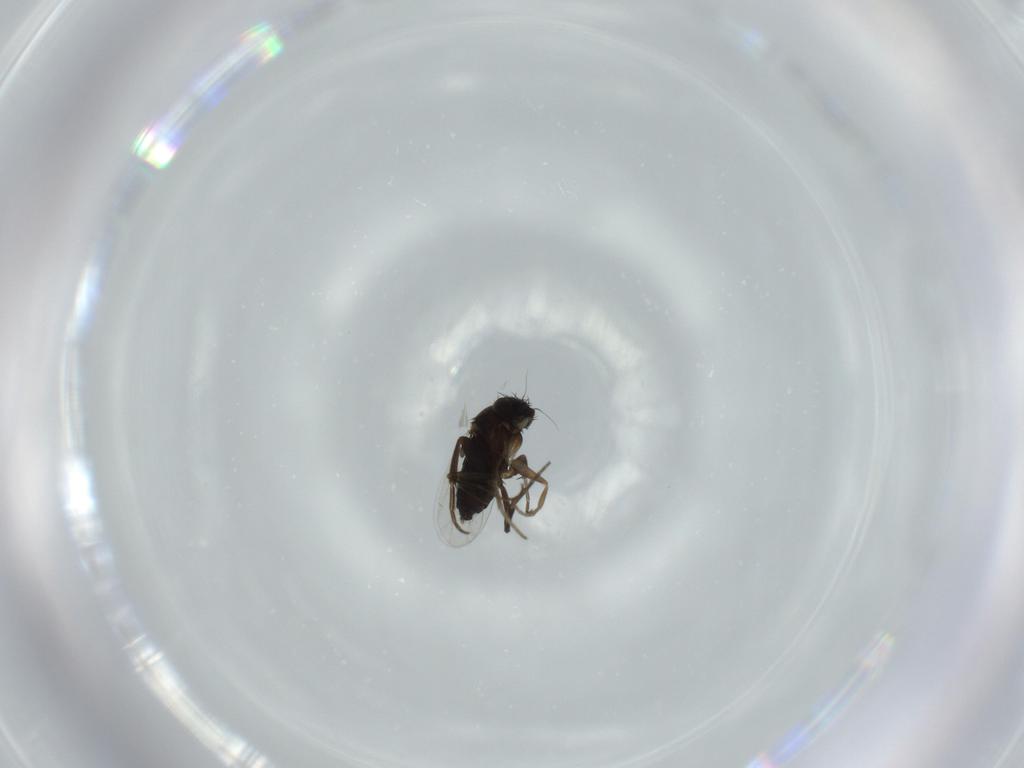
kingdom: Animalia
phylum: Arthropoda
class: Insecta
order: Diptera
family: Phoridae
